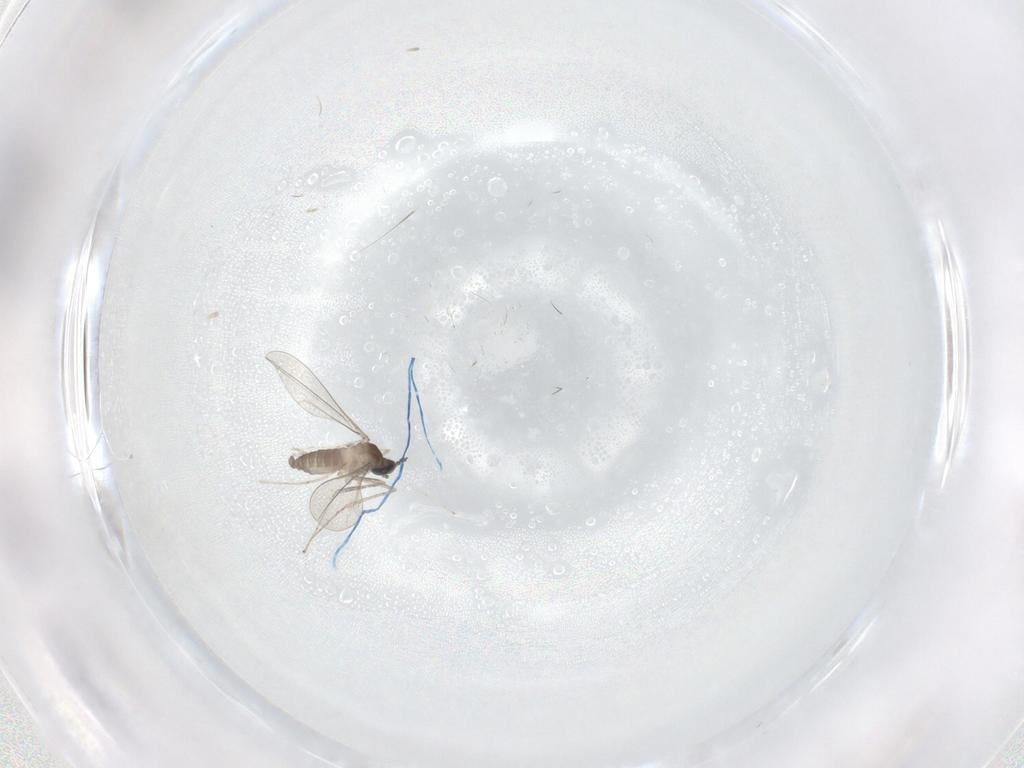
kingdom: Animalia
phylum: Arthropoda
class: Insecta
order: Diptera
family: Cecidomyiidae
